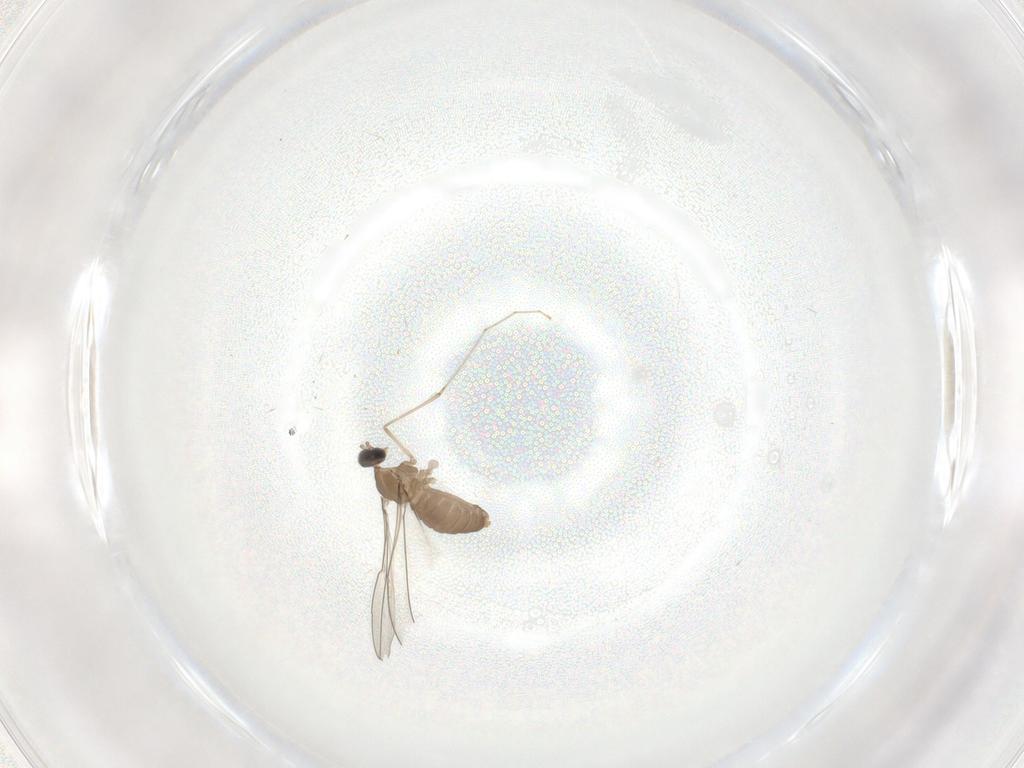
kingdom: Animalia
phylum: Arthropoda
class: Insecta
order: Diptera
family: Cecidomyiidae
